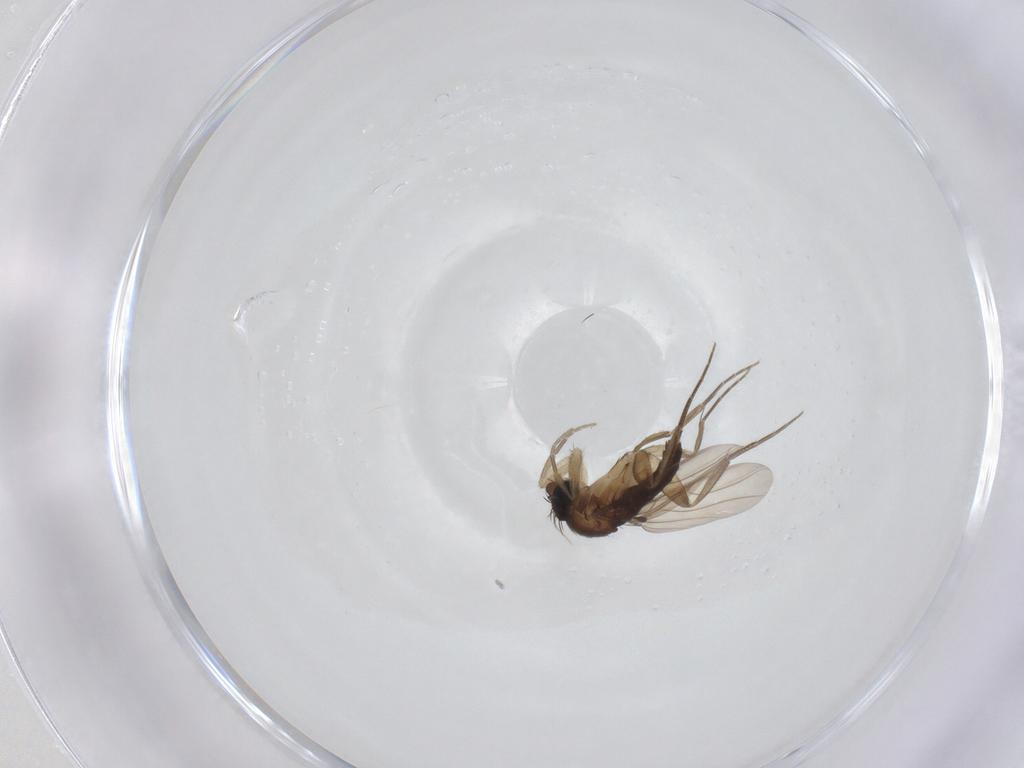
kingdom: Animalia
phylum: Arthropoda
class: Insecta
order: Diptera
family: Phoridae
